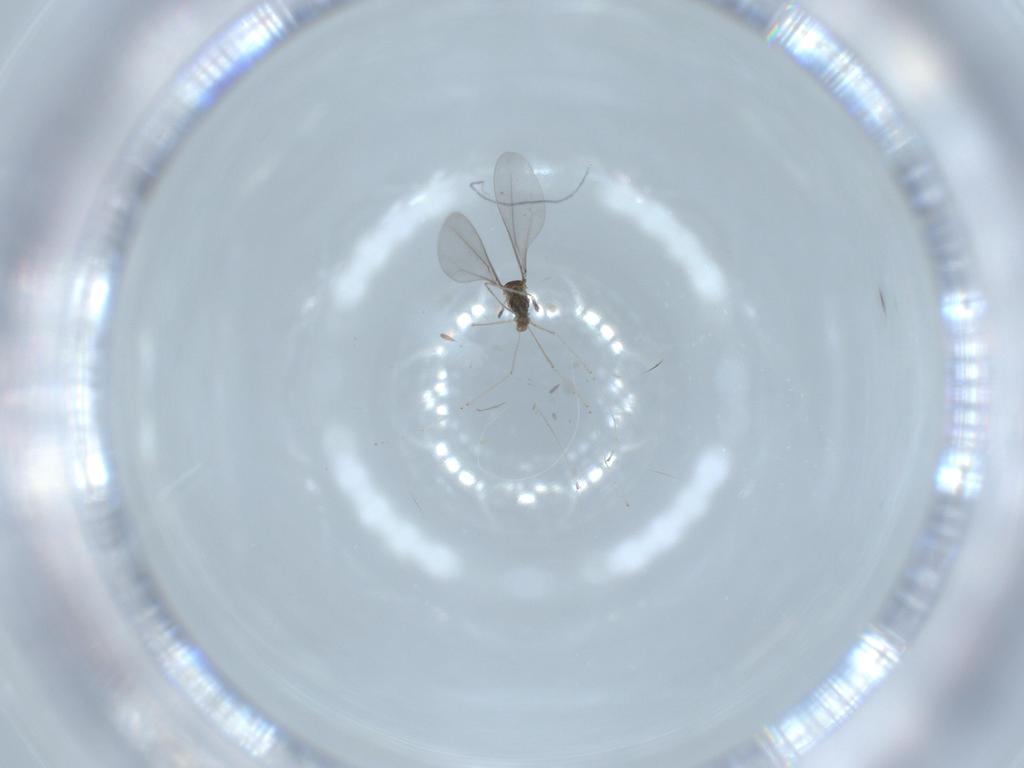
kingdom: Animalia
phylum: Arthropoda
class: Insecta
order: Diptera
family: Cecidomyiidae
